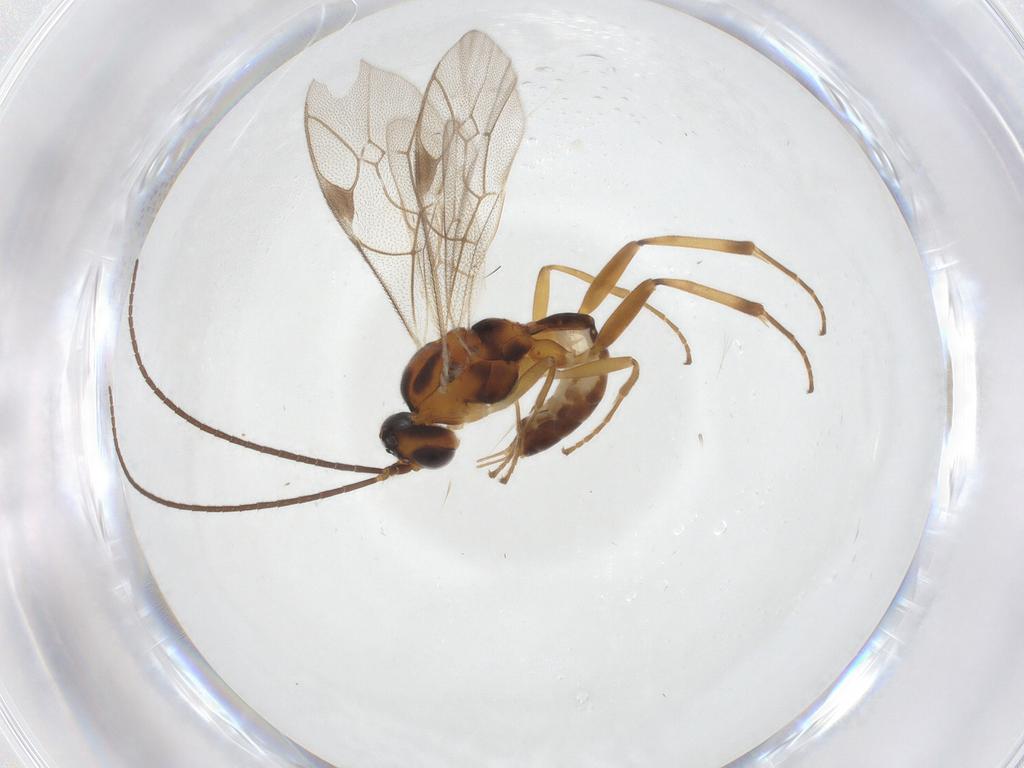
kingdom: Animalia
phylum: Arthropoda
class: Insecta
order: Hymenoptera
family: Ichneumonidae
